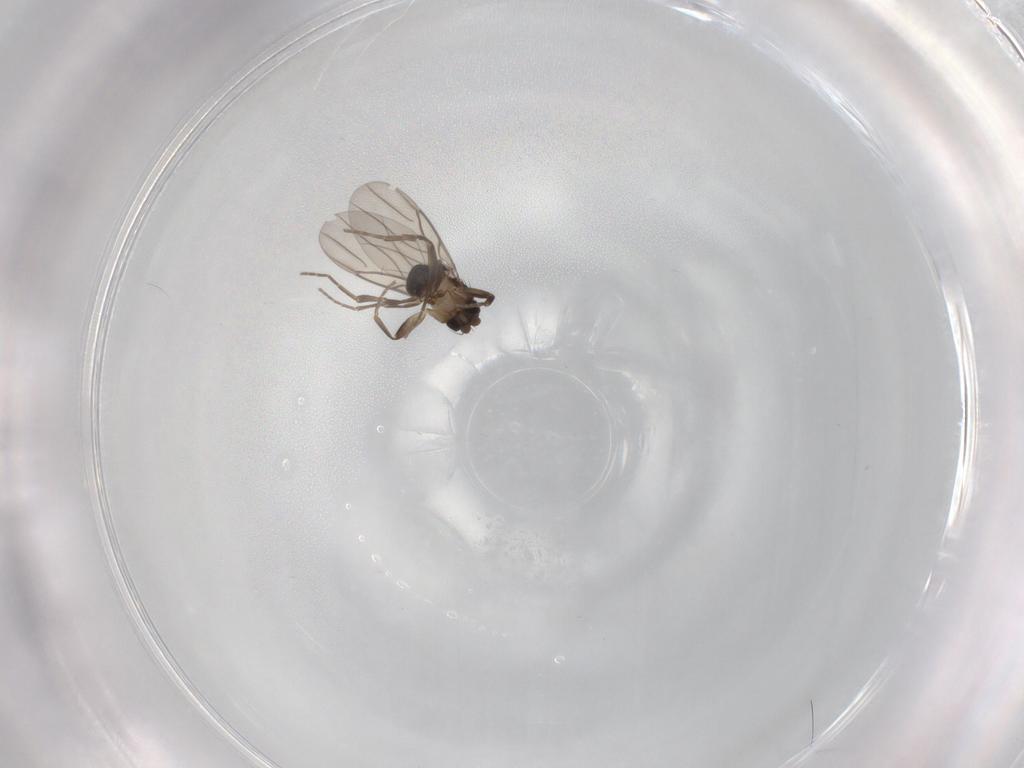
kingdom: Animalia
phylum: Arthropoda
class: Insecta
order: Diptera
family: Phoridae
